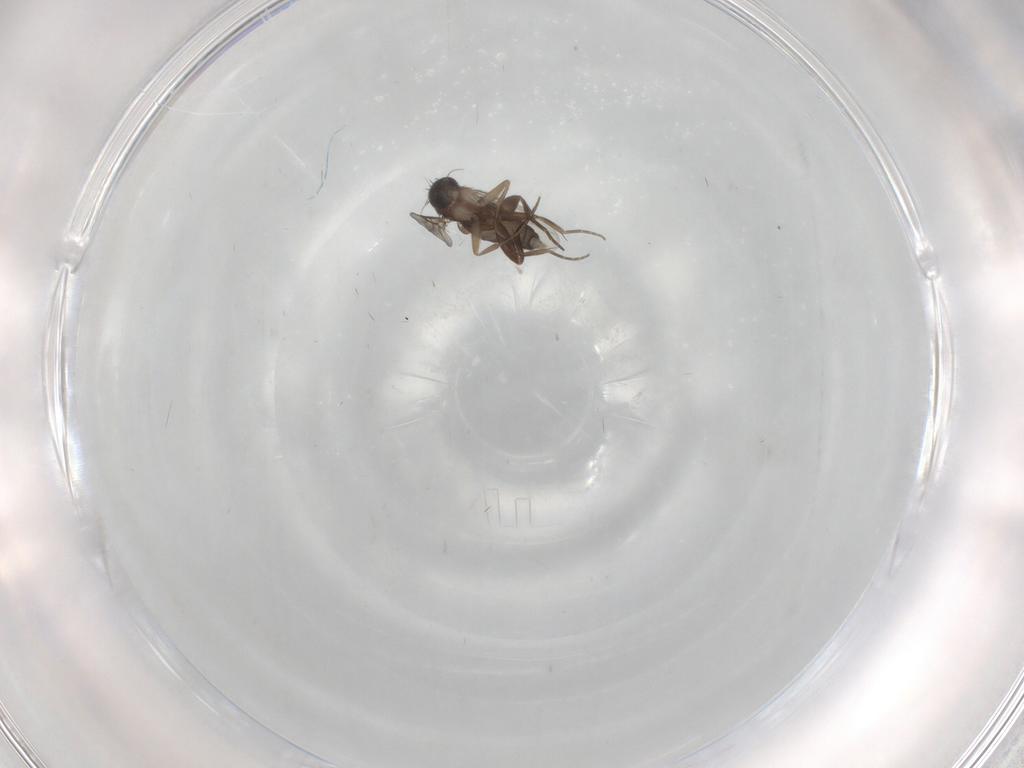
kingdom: Animalia
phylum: Arthropoda
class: Insecta
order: Diptera
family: Phoridae
